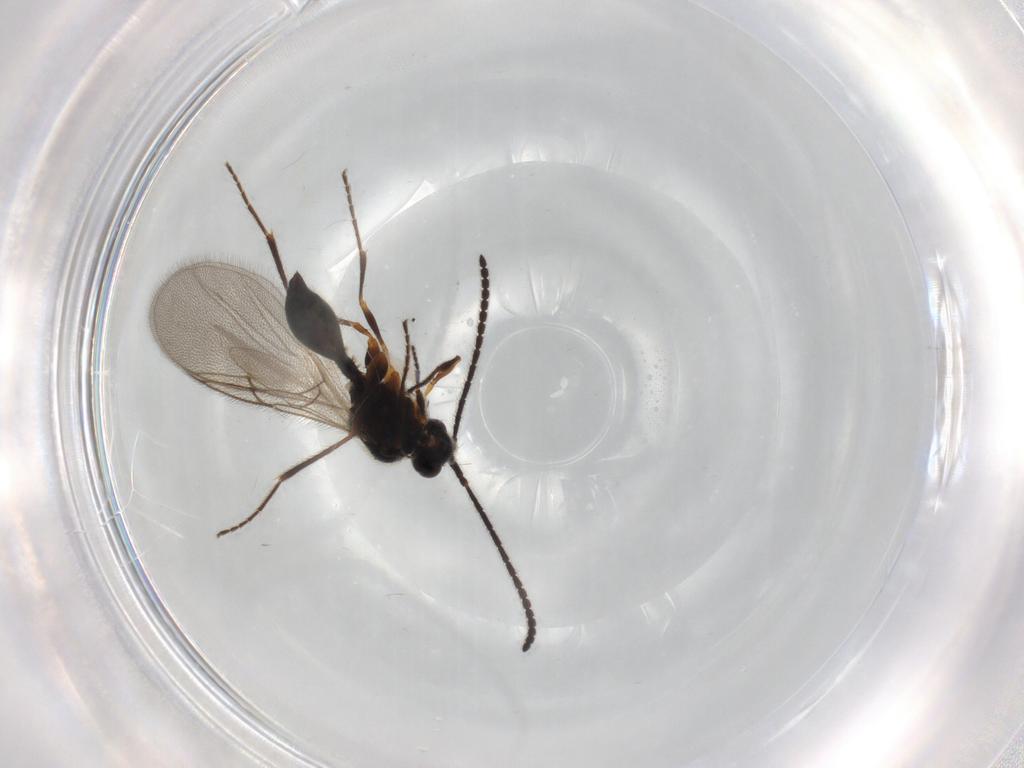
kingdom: Animalia
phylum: Arthropoda
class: Insecta
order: Hymenoptera
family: Diapriidae
